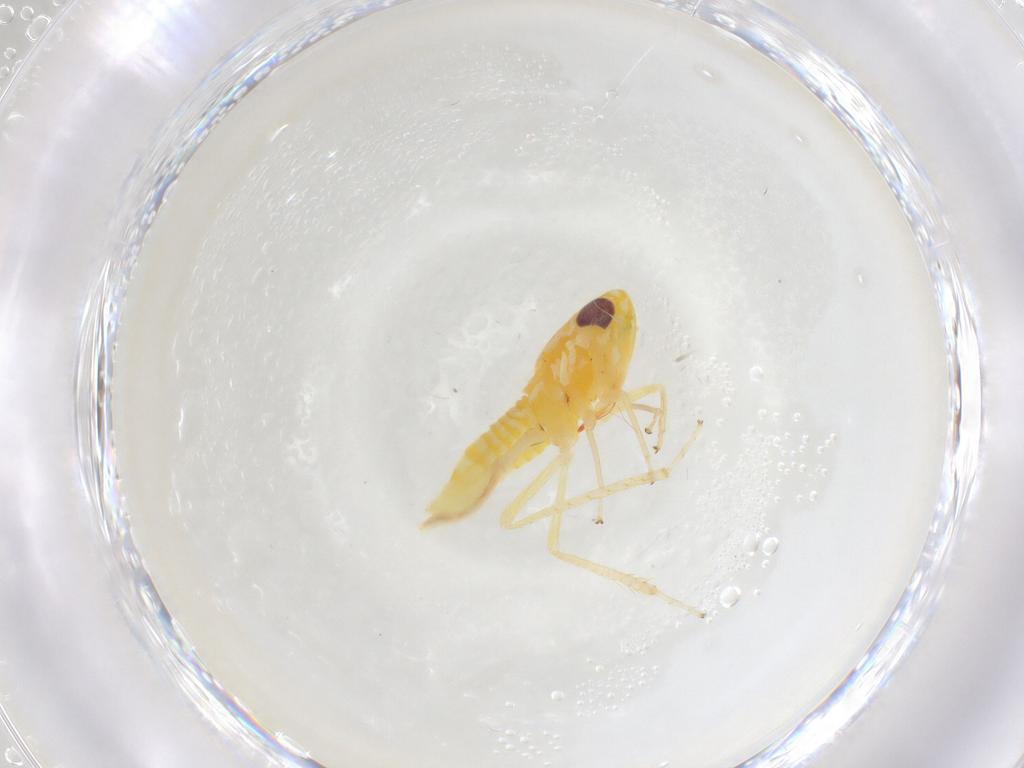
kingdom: Animalia
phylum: Arthropoda
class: Insecta
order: Hemiptera
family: Cicadellidae
